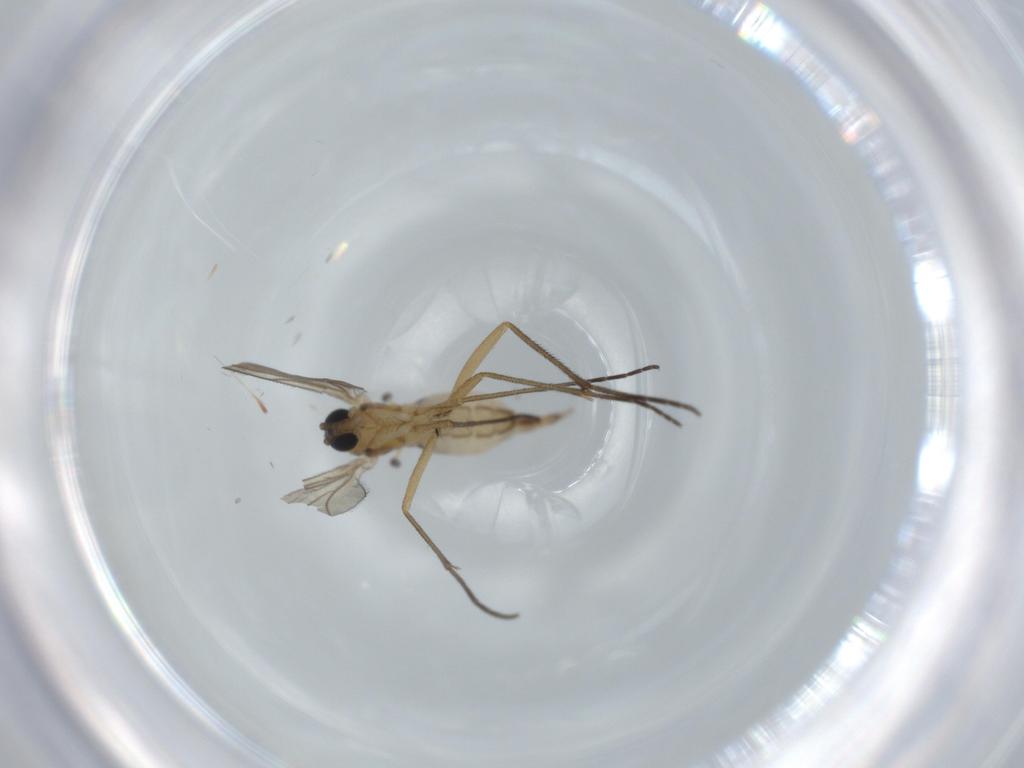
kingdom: Animalia
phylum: Arthropoda
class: Insecta
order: Diptera
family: Sciaridae
